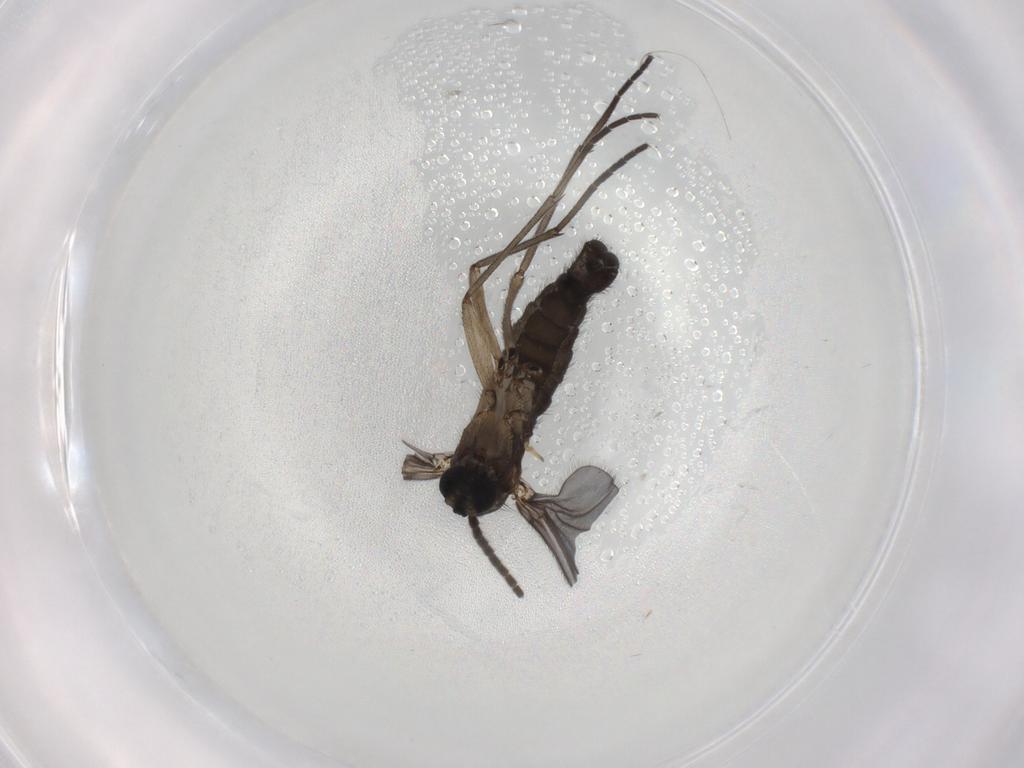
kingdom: Animalia
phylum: Arthropoda
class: Insecta
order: Diptera
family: Sciaridae
